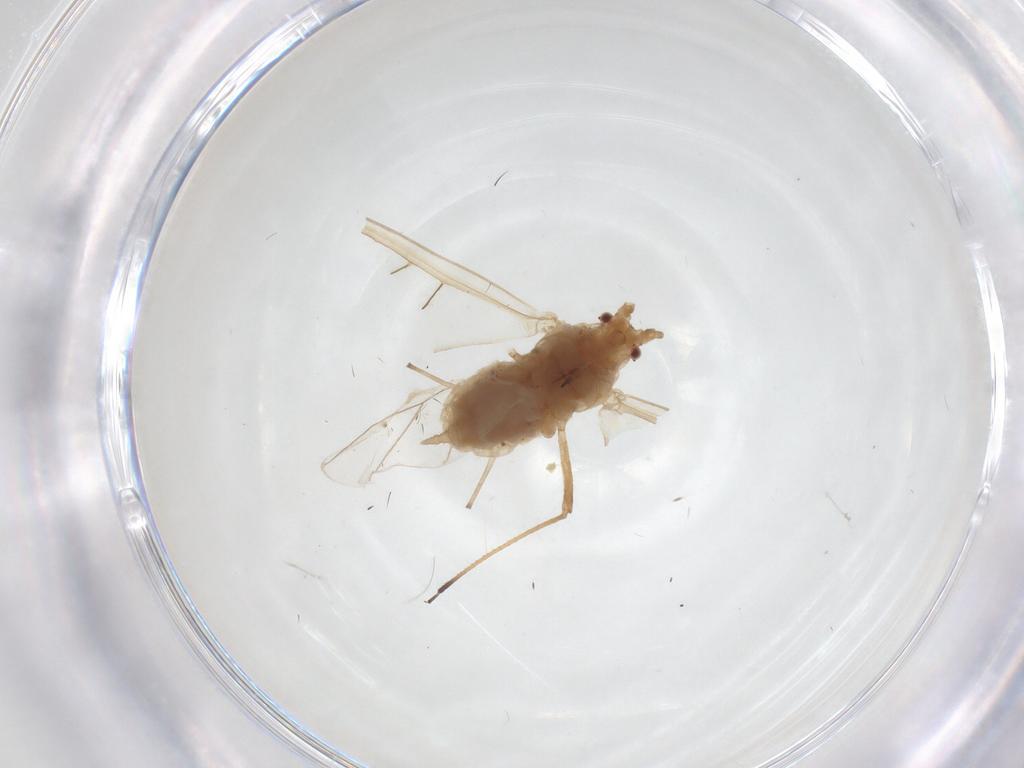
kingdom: Animalia
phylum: Arthropoda
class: Insecta
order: Hemiptera
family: Aphididae
